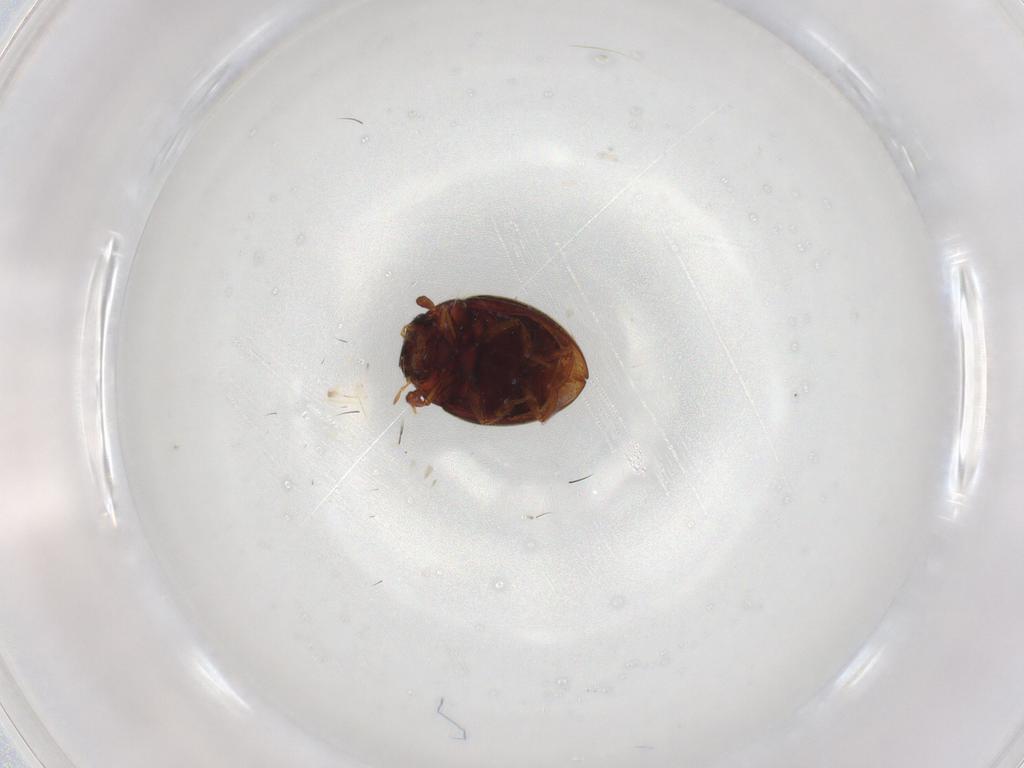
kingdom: Animalia
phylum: Arthropoda
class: Insecta
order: Coleoptera
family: Hydrophilidae
